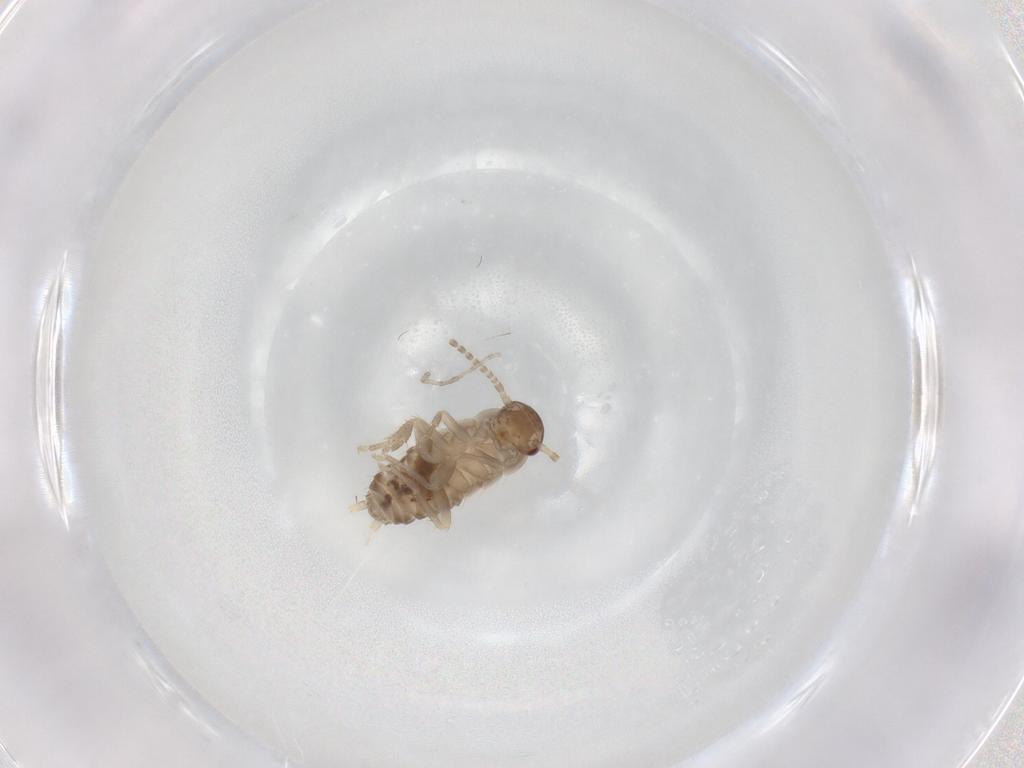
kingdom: Animalia
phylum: Arthropoda
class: Insecta
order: Blattodea
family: Ectobiidae
